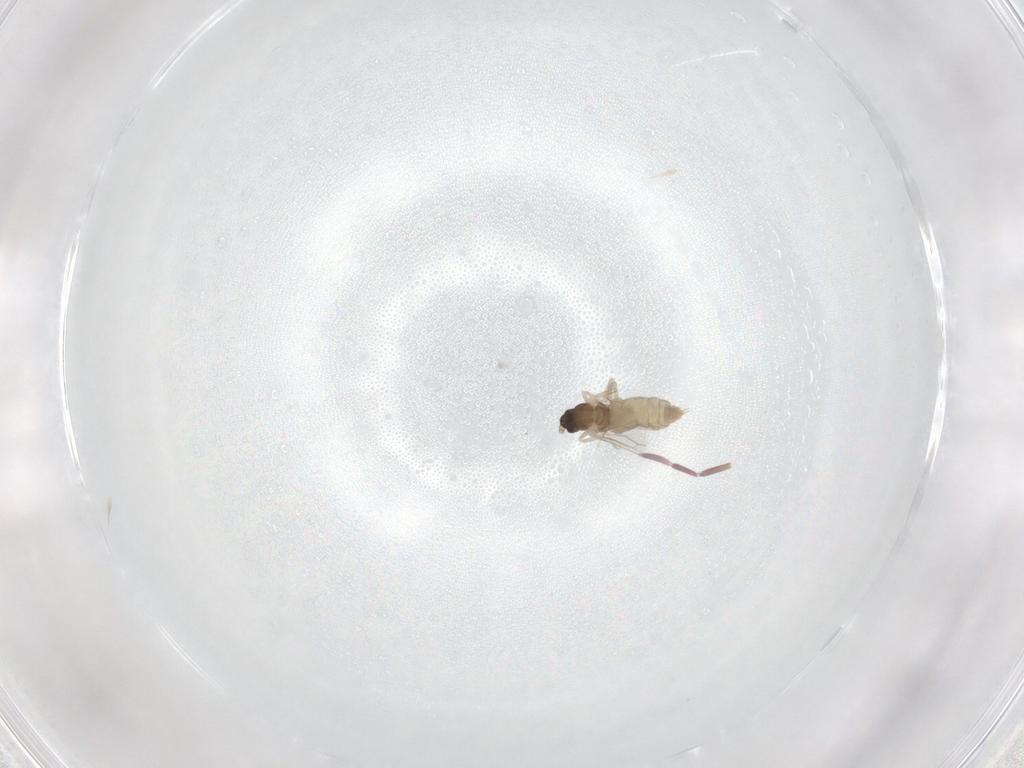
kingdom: Animalia
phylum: Arthropoda
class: Insecta
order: Diptera
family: Cecidomyiidae
